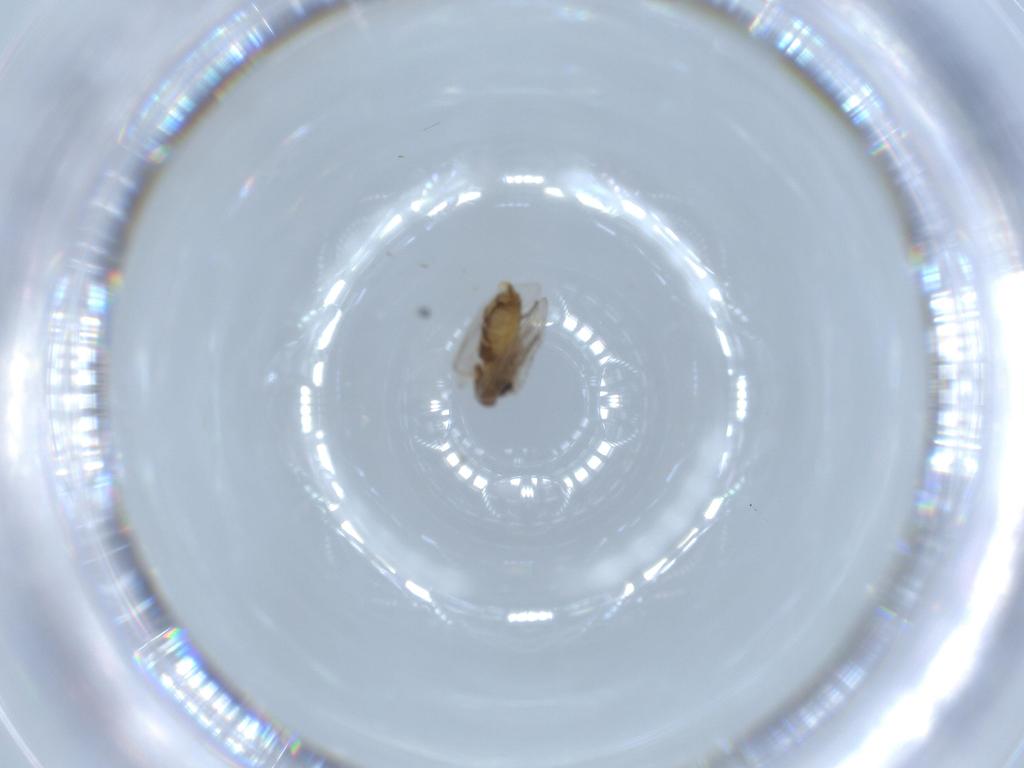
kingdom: Animalia
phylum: Arthropoda
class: Insecta
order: Diptera
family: Psychodidae
